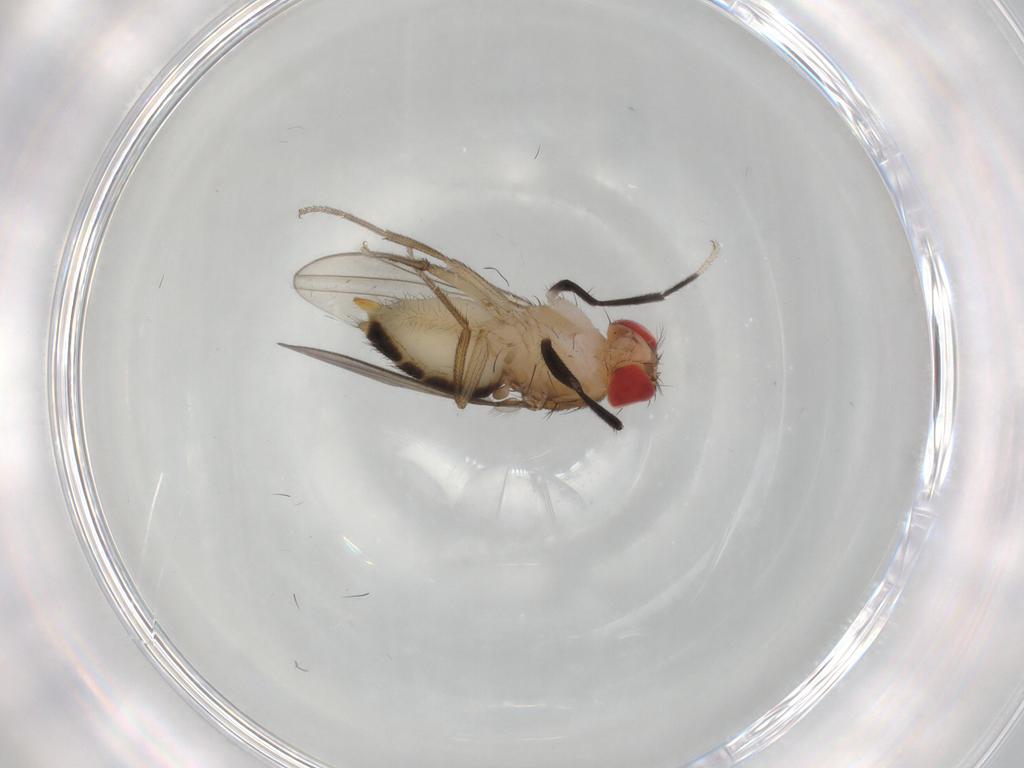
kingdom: Animalia
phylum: Arthropoda
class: Insecta
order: Diptera
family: Drosophilidae
